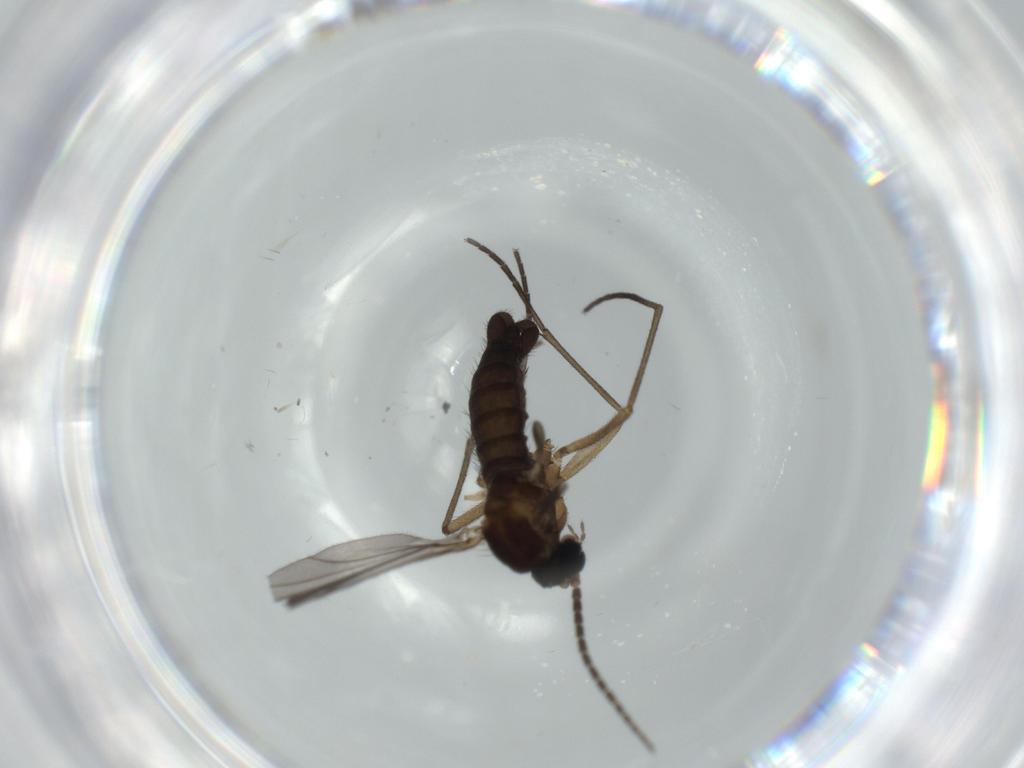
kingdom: Animalia
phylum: Arthropoda
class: Insecta
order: Diptera
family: Sciaridae
